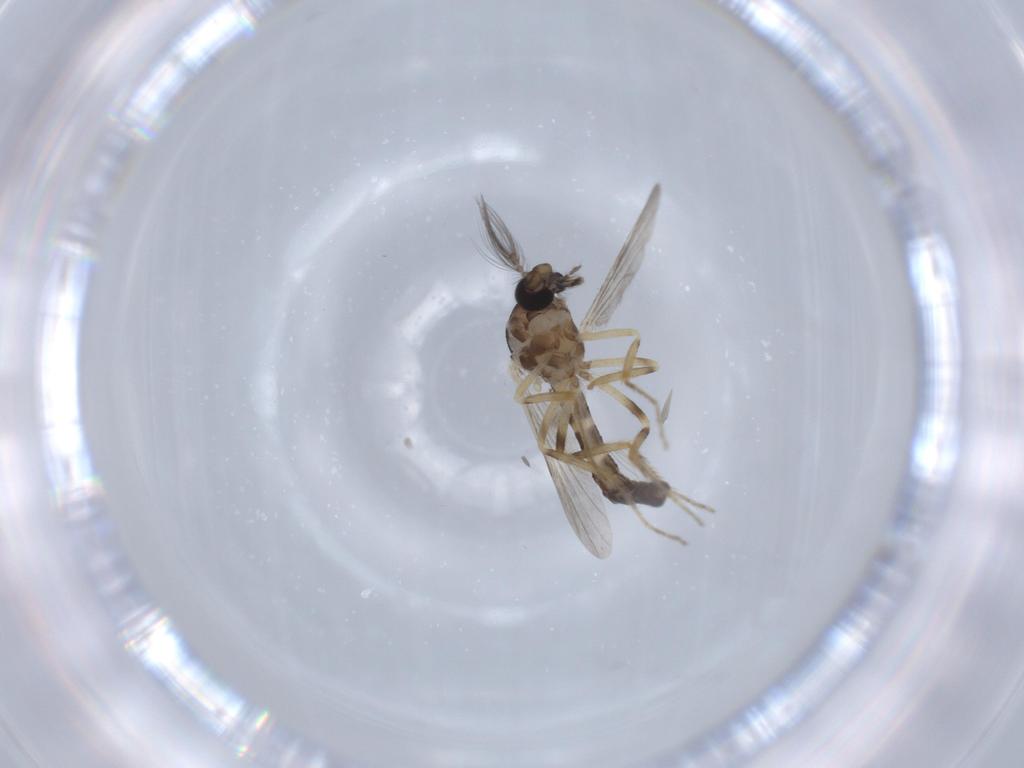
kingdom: Animalia
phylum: Arthropoda
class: Insecta
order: Diptera
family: Ceratopogonidae
